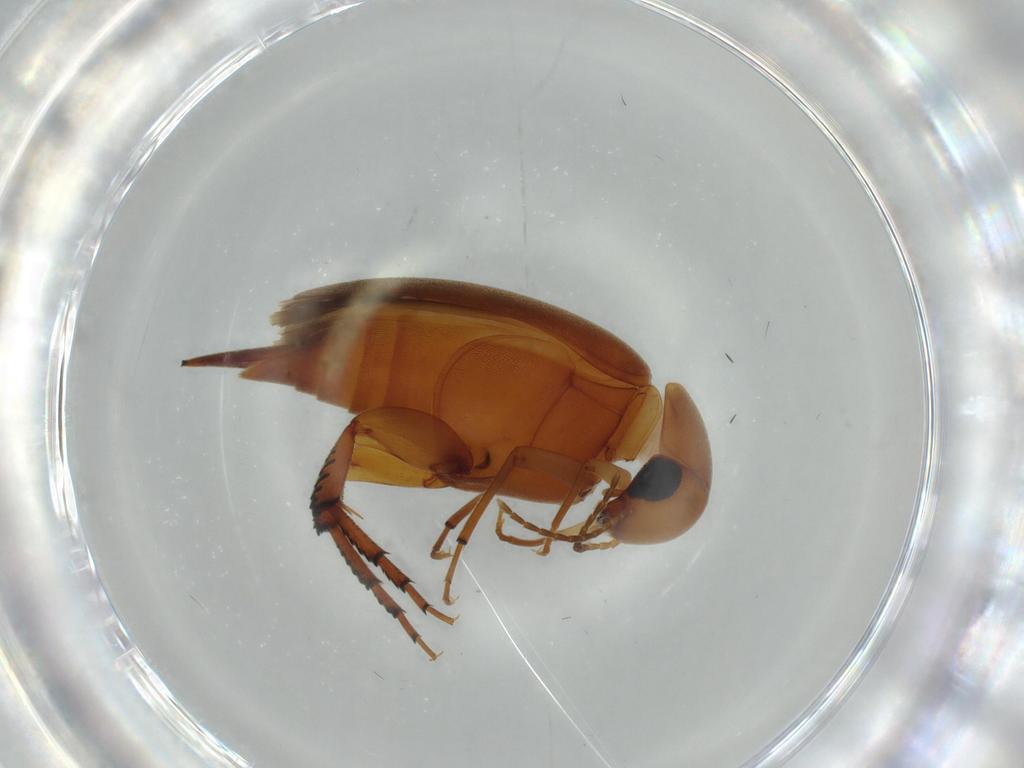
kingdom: Animalia
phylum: Arthropoda
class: Insecta
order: Coleoptera
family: Mordellidae
